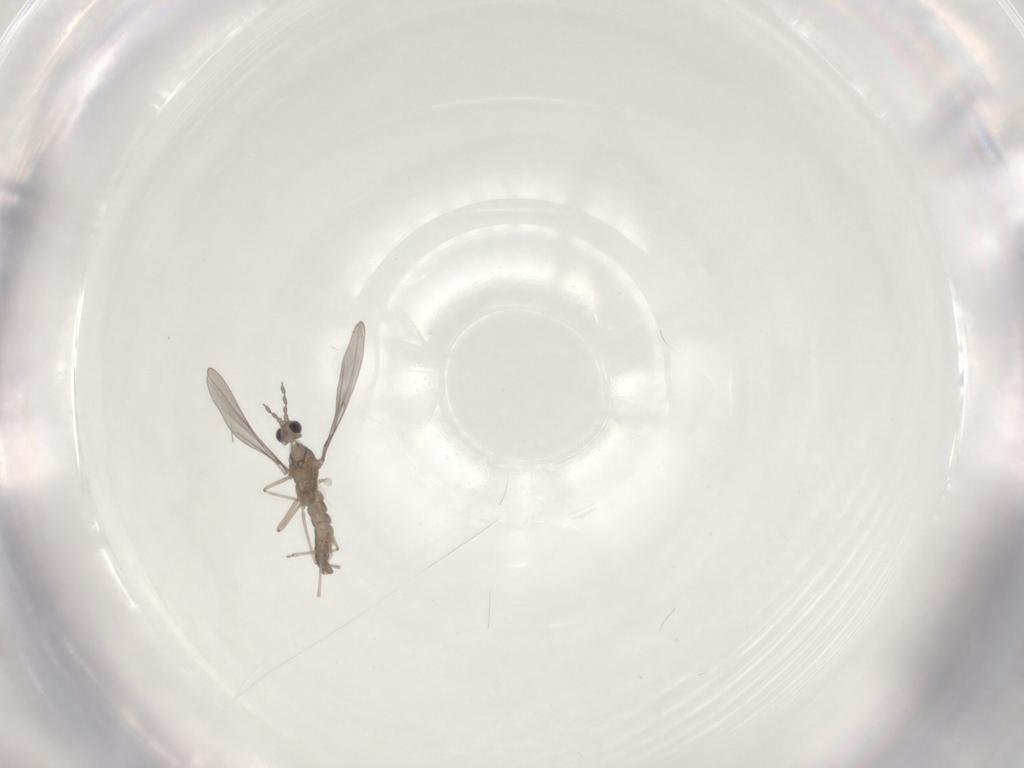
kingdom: Animalia
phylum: Arthropoda
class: Insecta
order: Diptera
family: Cecidomyiidae
